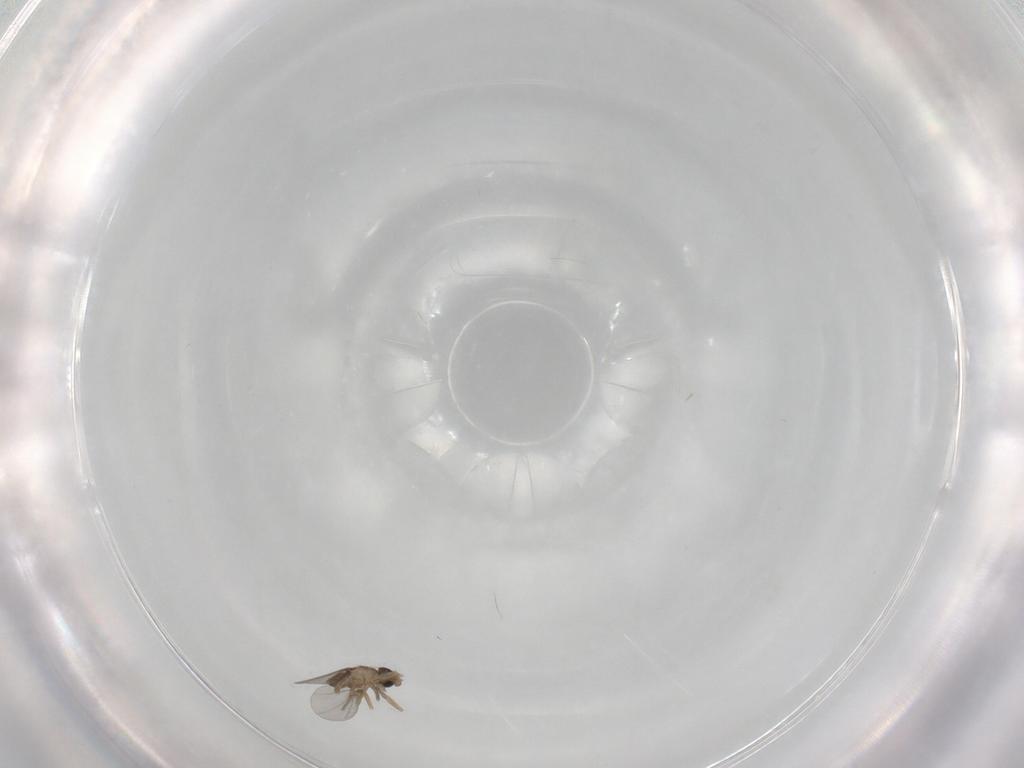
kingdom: Animalia
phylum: Arthropoda
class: Insecta
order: Diptera
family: Phoridae
